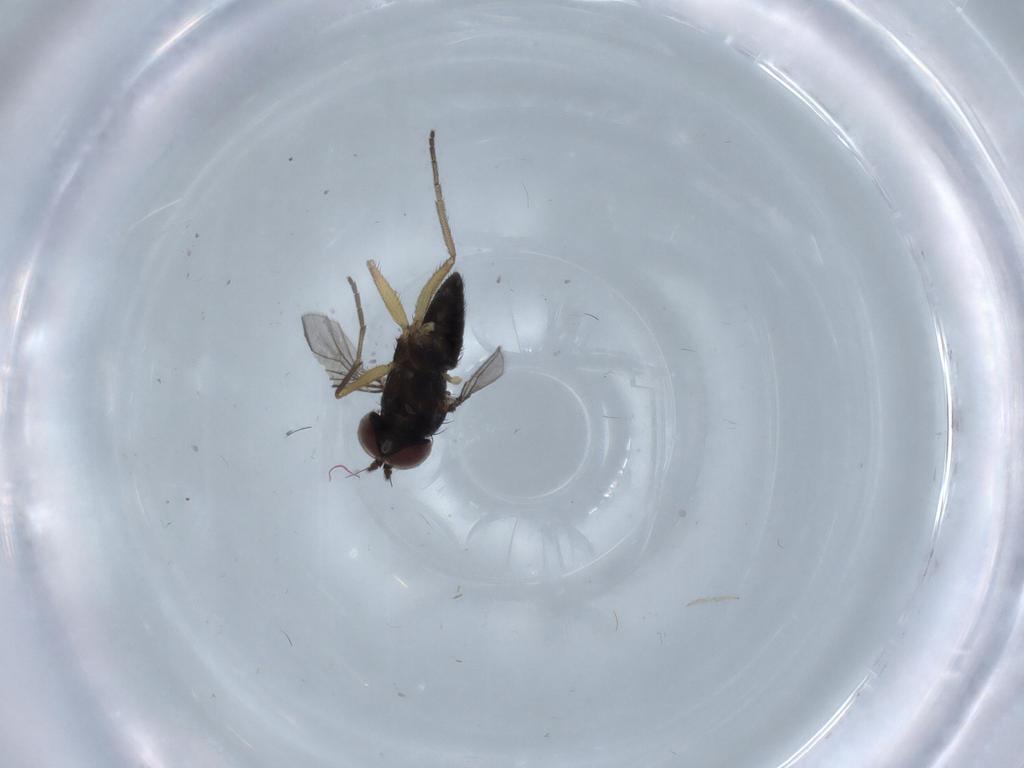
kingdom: Animalia
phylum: Arthropoda
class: Insecta
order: Diptera
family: Dolichopodidae
